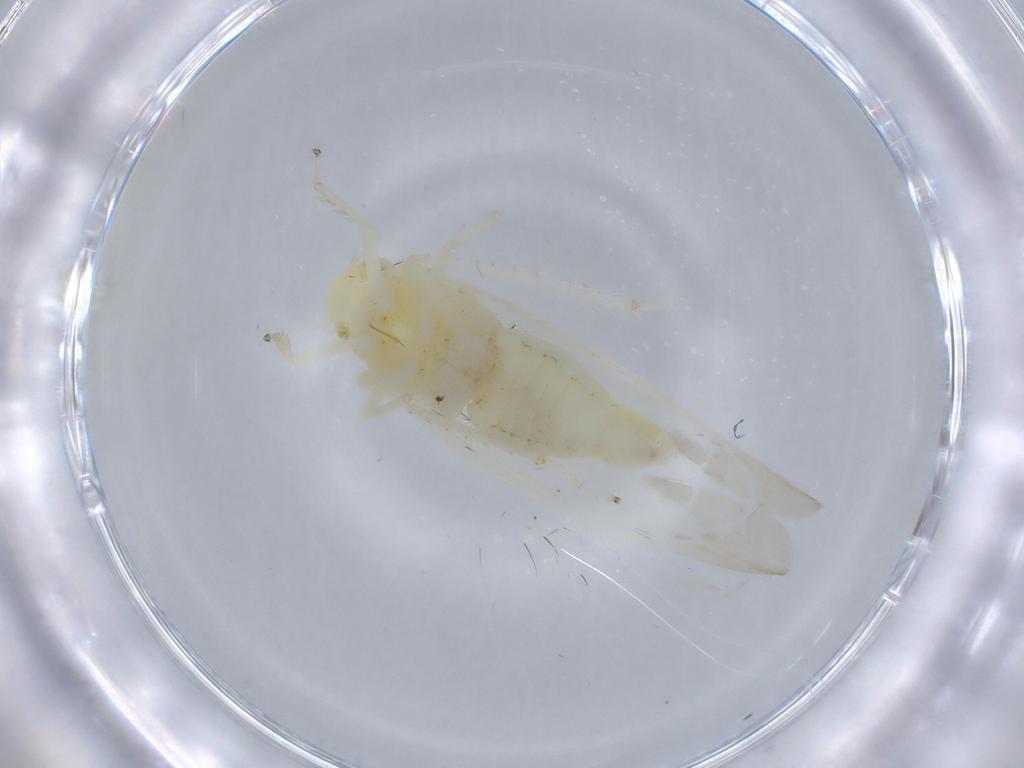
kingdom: Animalia
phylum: Arthropoda
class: Insecta
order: Hemiptera
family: Cicadellidae
